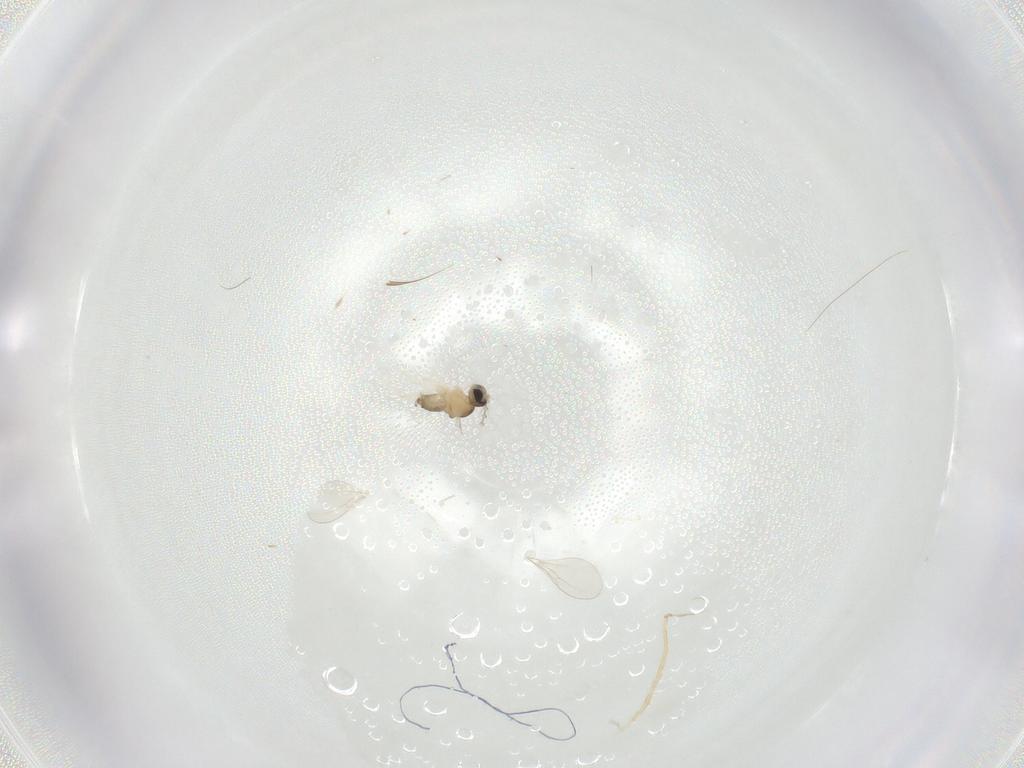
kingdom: Animalia
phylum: Arthropoda
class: Insecta
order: Diptera
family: Cecidomyiidae
